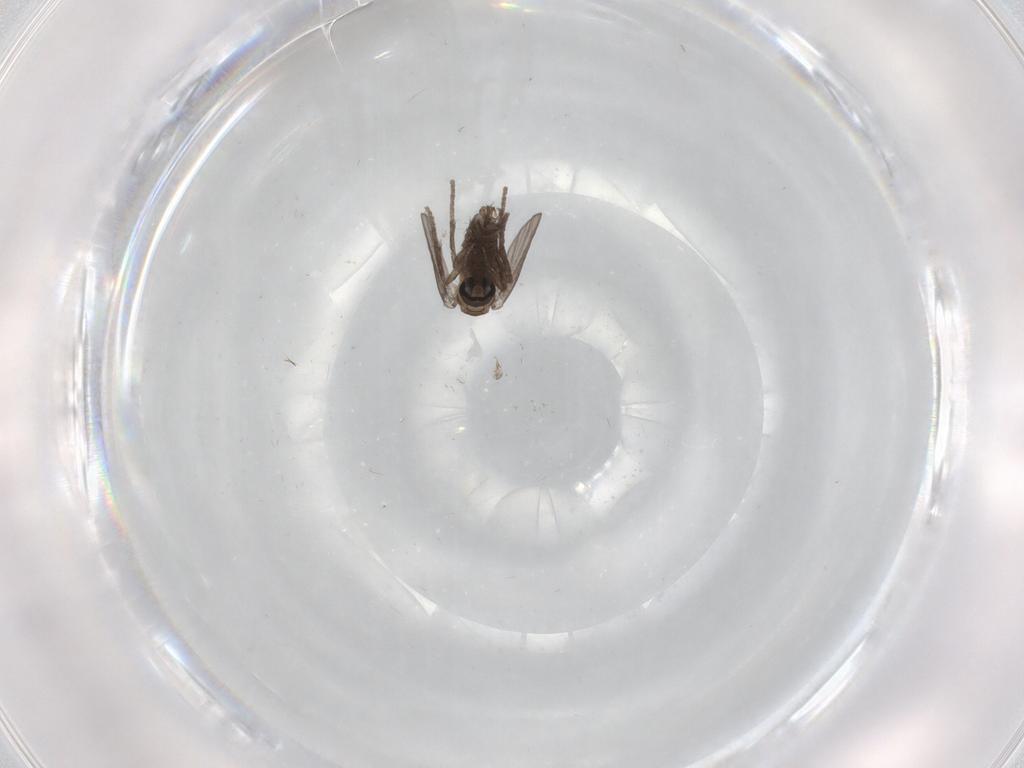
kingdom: Animalia
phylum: Arthropoda
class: Insecta
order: Diptera
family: Psychodidae
